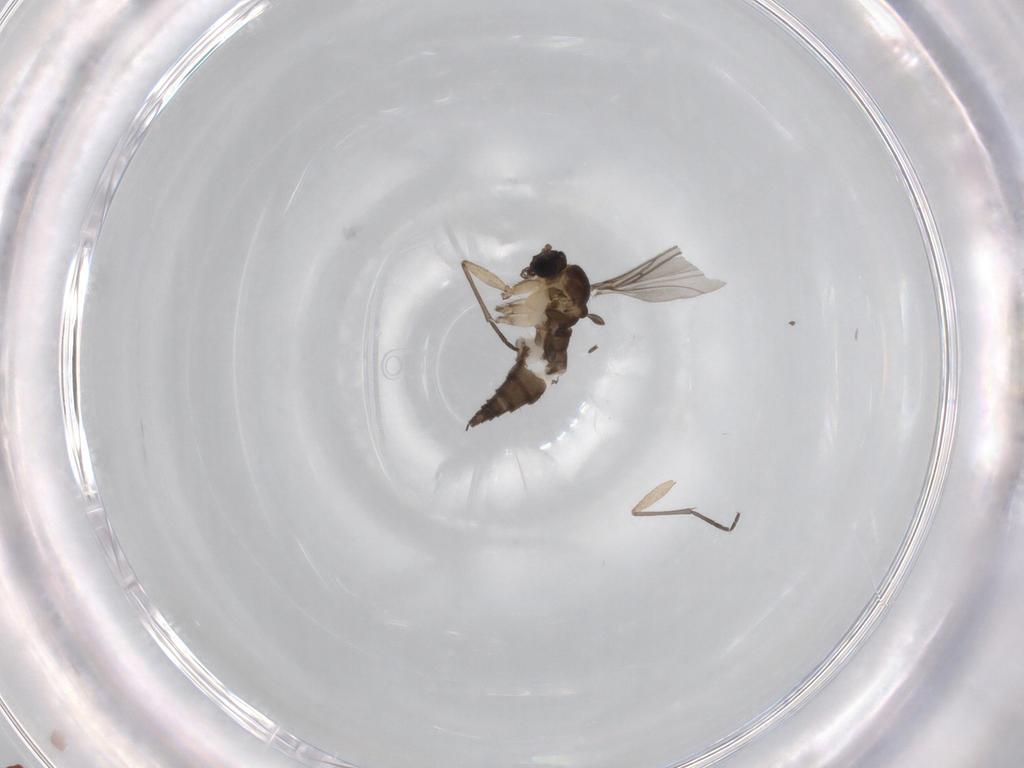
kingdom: Animalia
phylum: Arthropoda
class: Insecta
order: Diptera
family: Sciaridae
